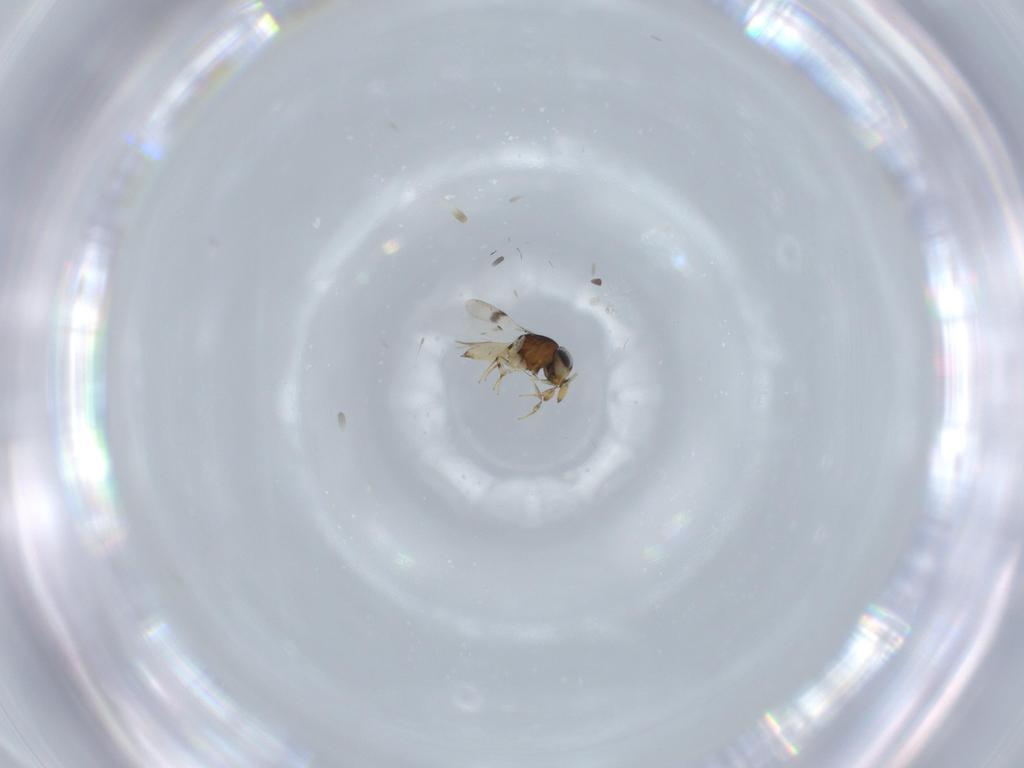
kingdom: Animalia
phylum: Arthropoda
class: Insecta
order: Hymenoptera
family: Scelionidae
